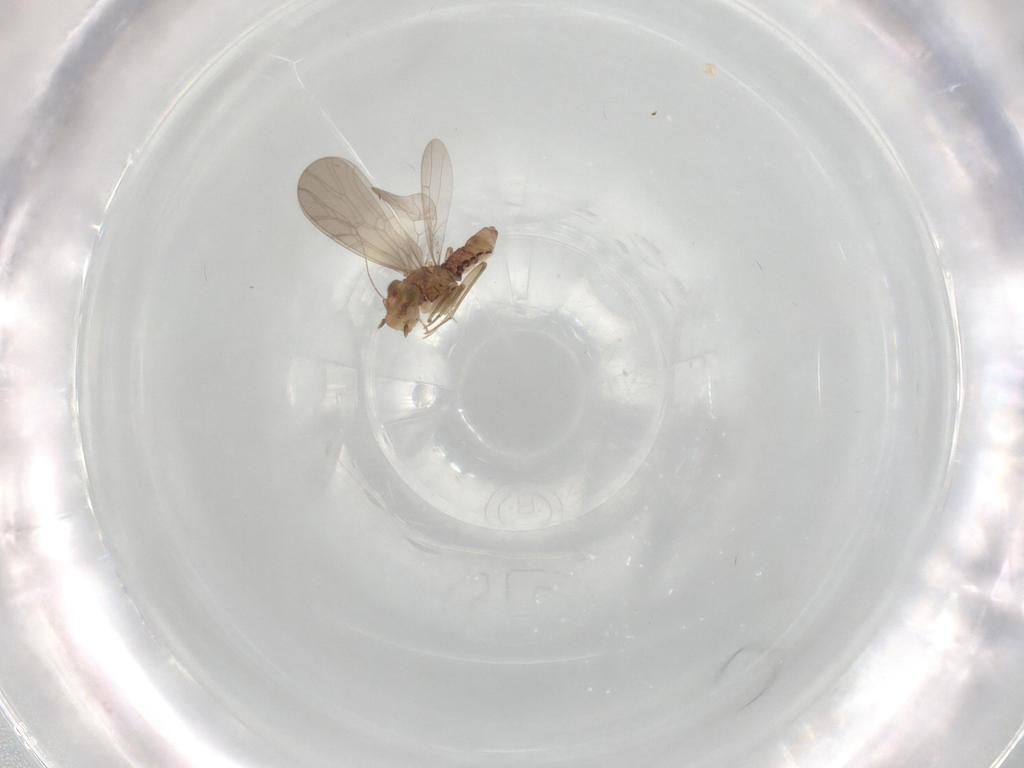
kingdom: Animalia
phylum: Arthropoda
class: Insecta
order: Psocodea
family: Lepidopsocidae
